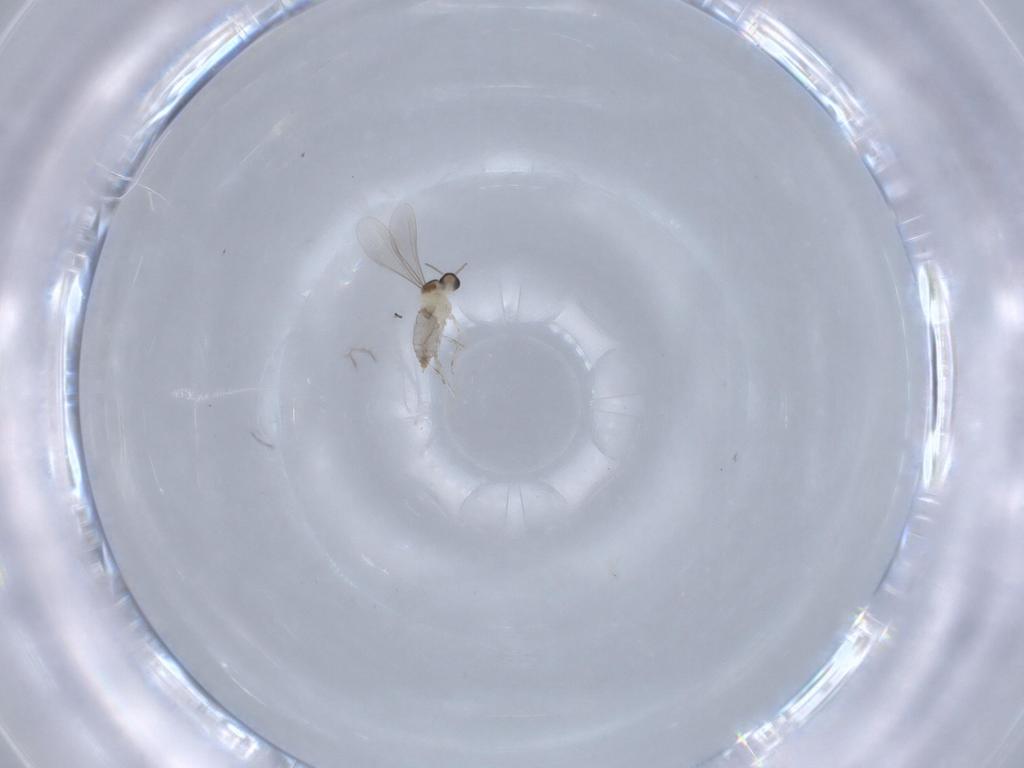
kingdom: Animalia
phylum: Arthropoda
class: Insecta
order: Diptera
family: Sciaridae
